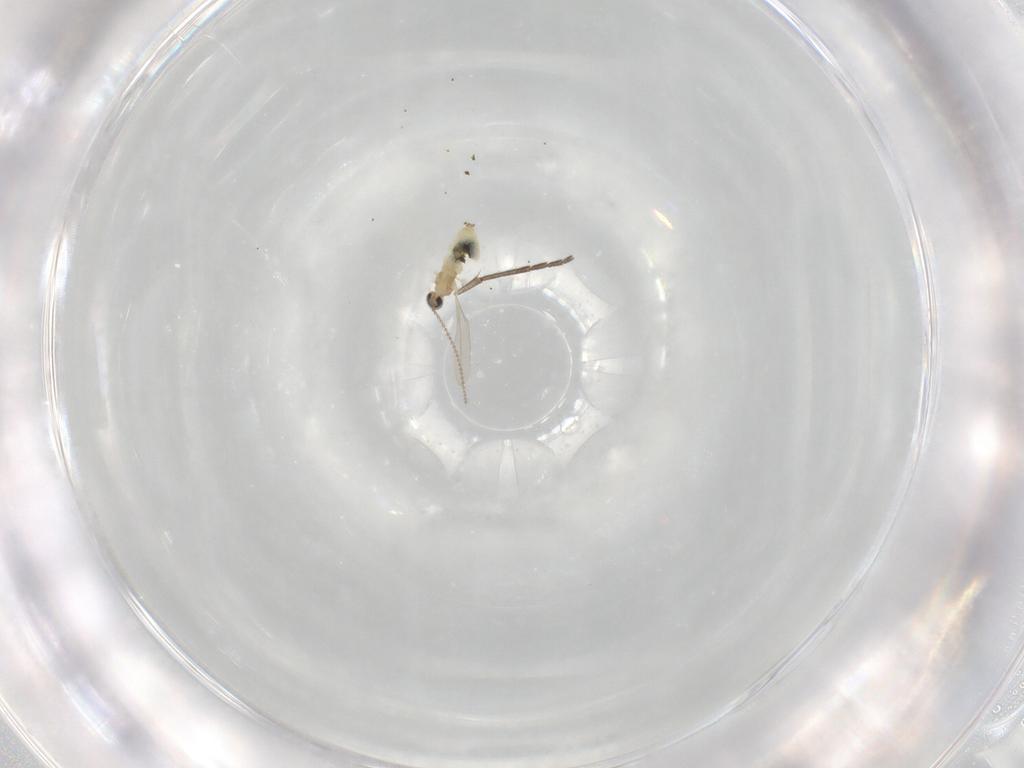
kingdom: Animalia
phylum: Arthropoda
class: Insecta
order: Diptera
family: Sciaridae
